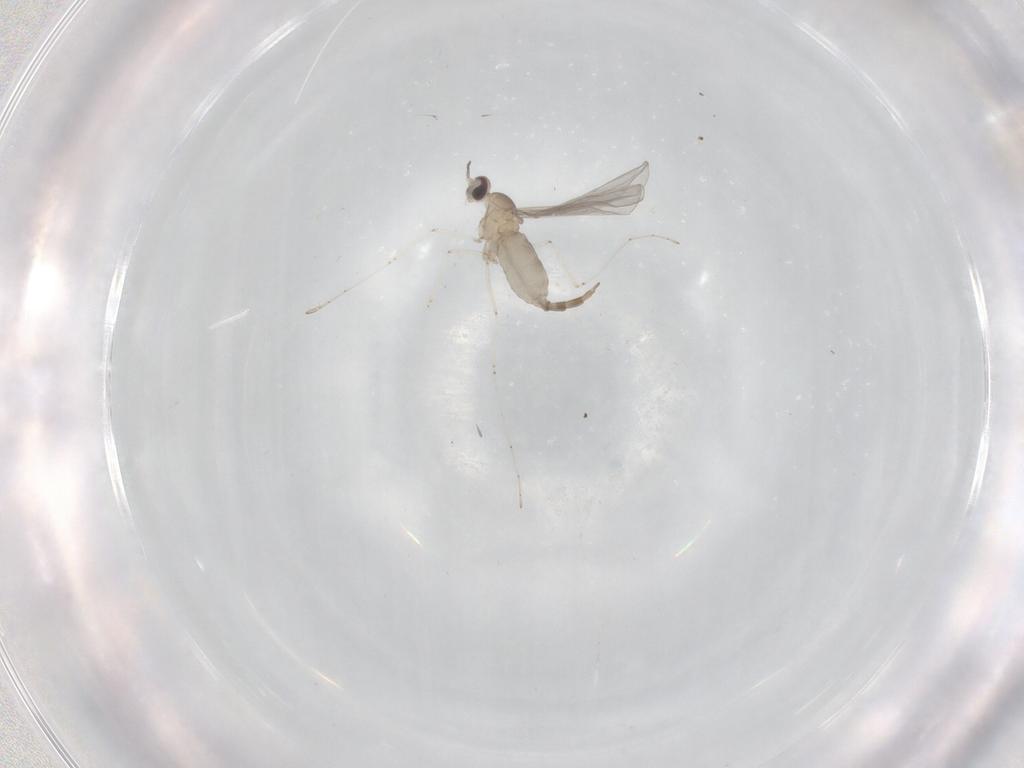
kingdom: Animalia
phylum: Arthropoda
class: Insecta
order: Diptera
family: Cecidomyiidae
